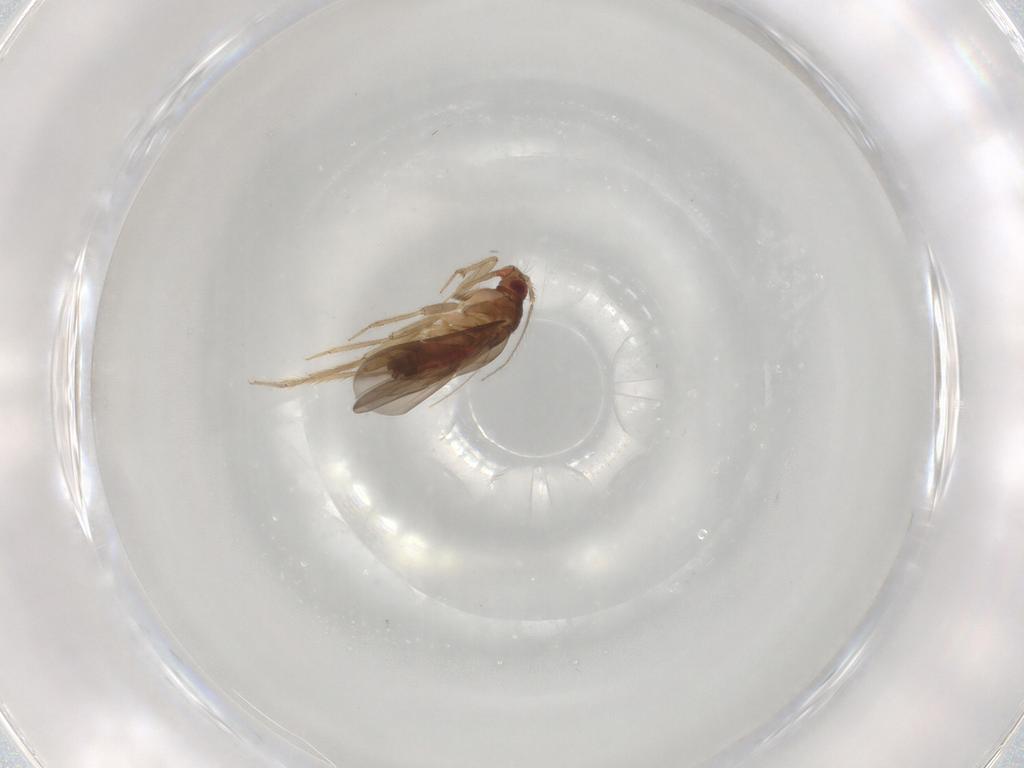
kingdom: Animalia
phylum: Arthropoda
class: Insecta
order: Hemiptera
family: Ceratocombidae
